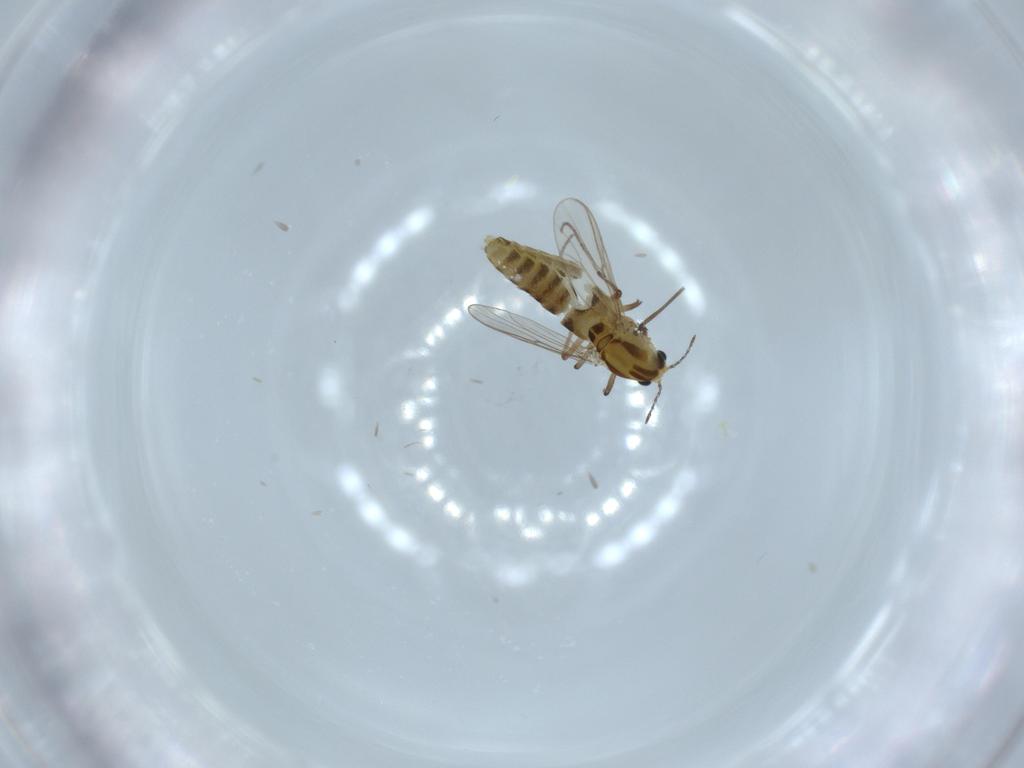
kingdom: Animalia
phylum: Arthropoda
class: Insecta
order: Diptera
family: Chironomidae
